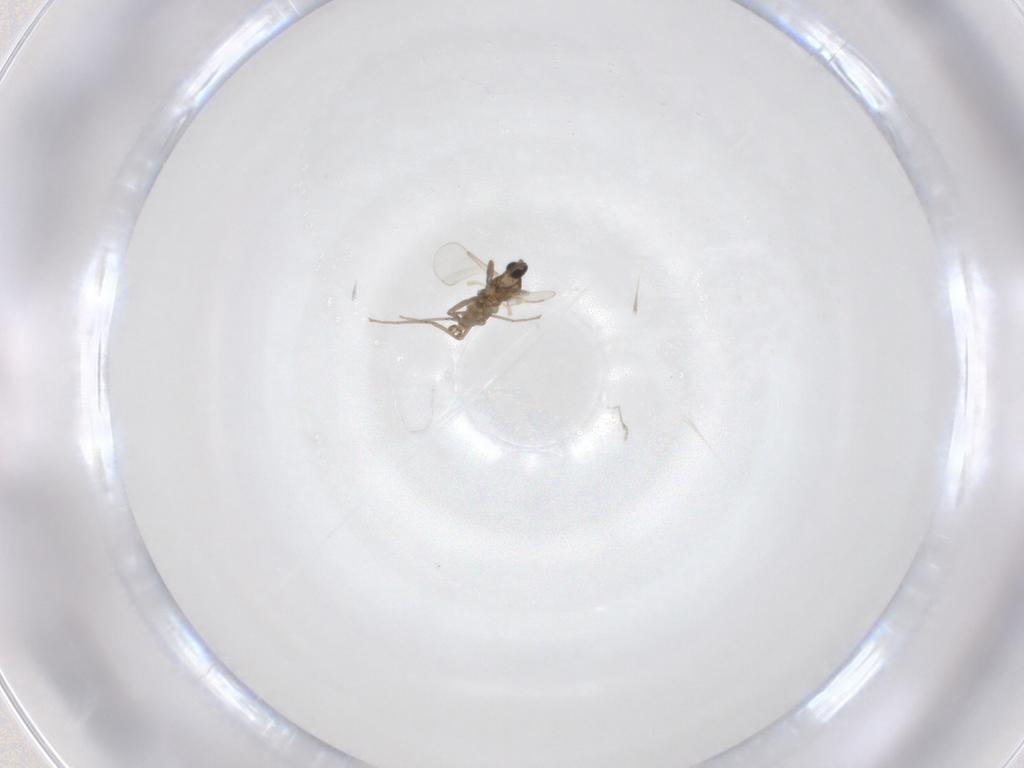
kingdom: Animalia
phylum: Arthropoda
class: Insecta
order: Diptera
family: Cecidomyiidae
